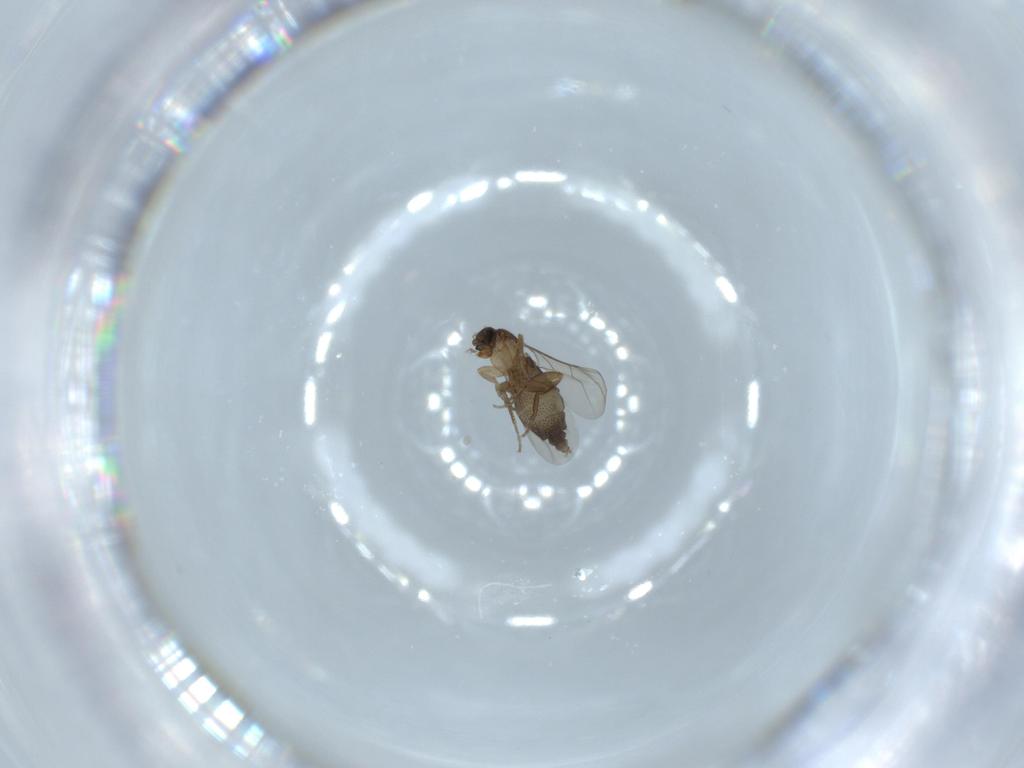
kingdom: Animalia
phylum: Arthropoda
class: Insecta
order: Diptera
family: Phoridae
